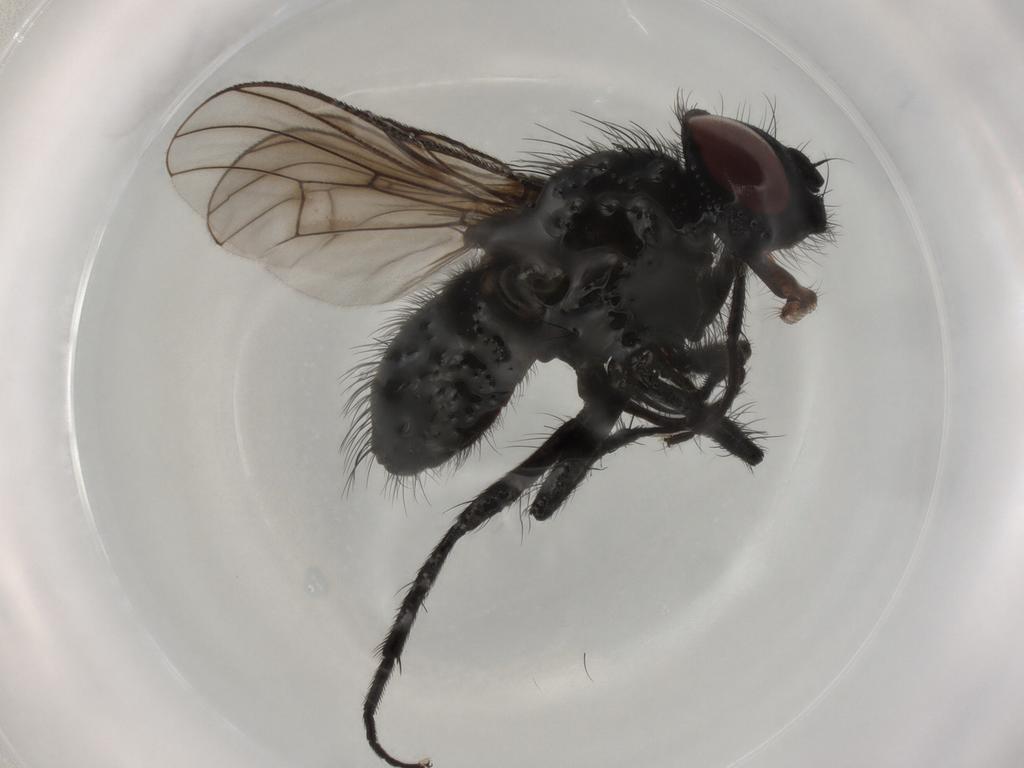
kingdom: Animalia
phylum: Arthropoda
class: Insecta
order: Diptera
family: Muscidae
